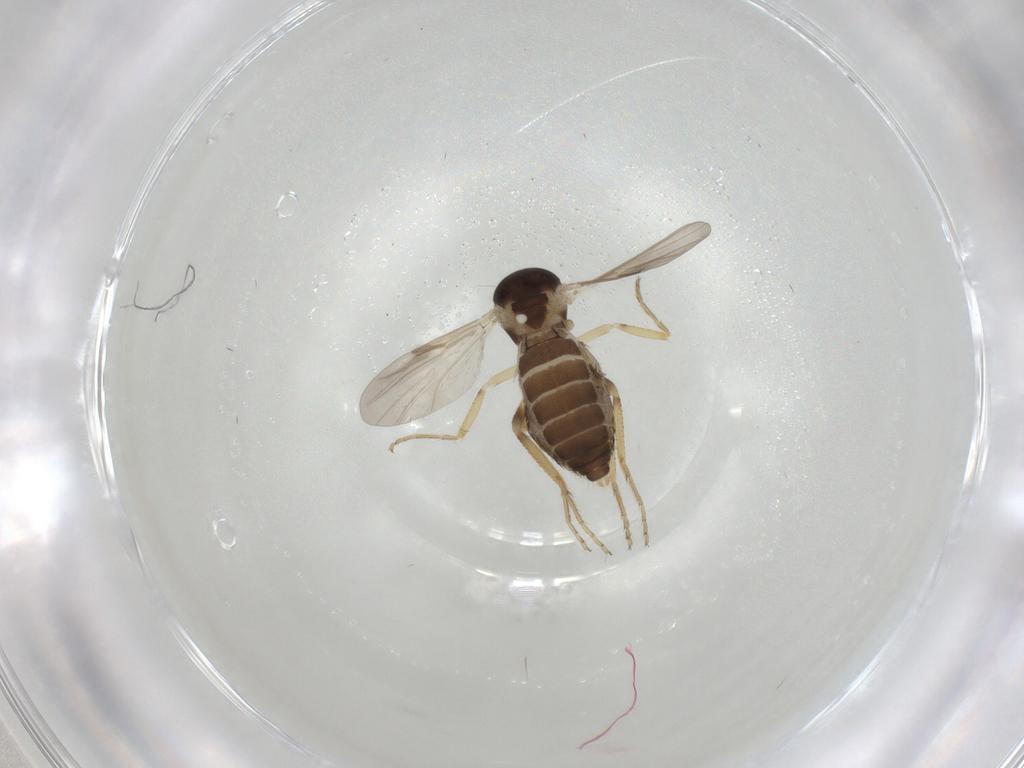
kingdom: Animalia
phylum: Arthropoda
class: Insecta
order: Diptera
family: Ceratopogonidae
